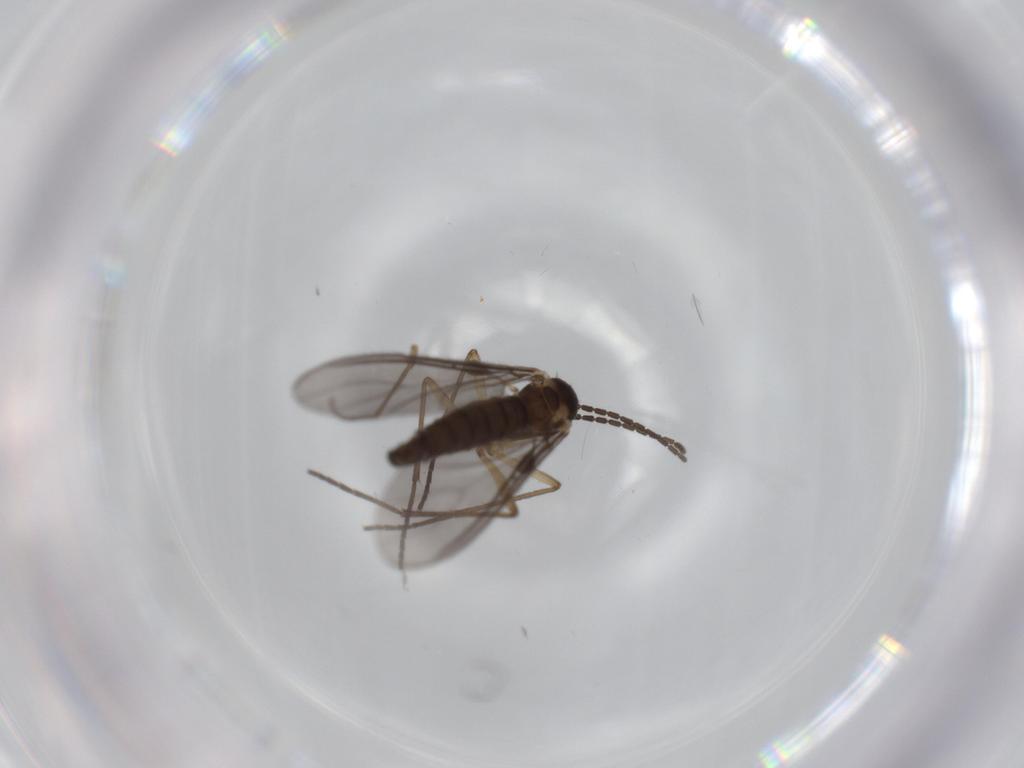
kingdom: Animalia
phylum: Arthropoda
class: Insecta
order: Diptera
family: Sciaridae
